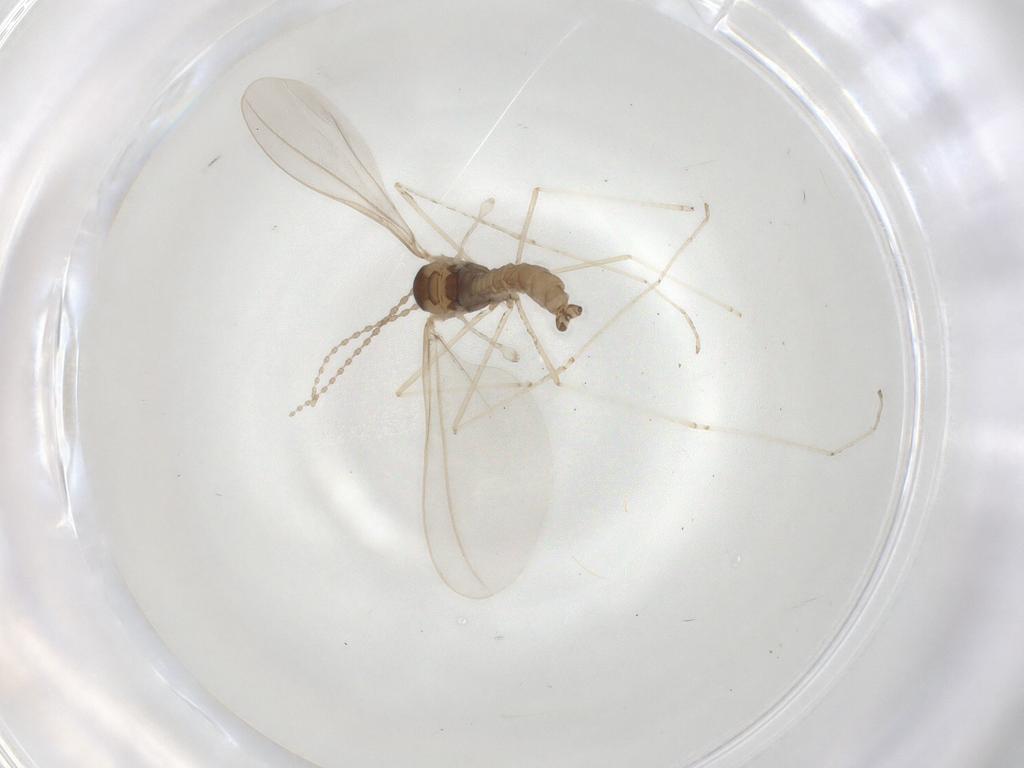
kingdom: Animalia
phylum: Arthropoda
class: Insecta
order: Diptera
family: Cecidomyiidae
